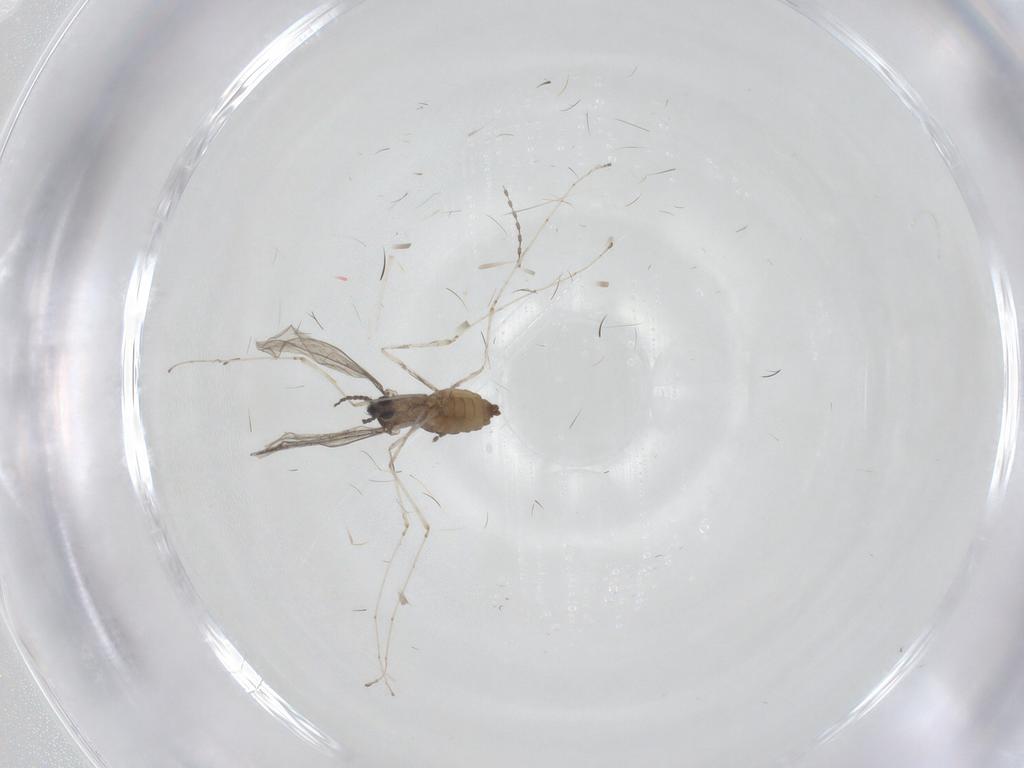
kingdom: Animalia
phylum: Arthropoda
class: Insecta
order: Diptera
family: Cecidomyiidae
